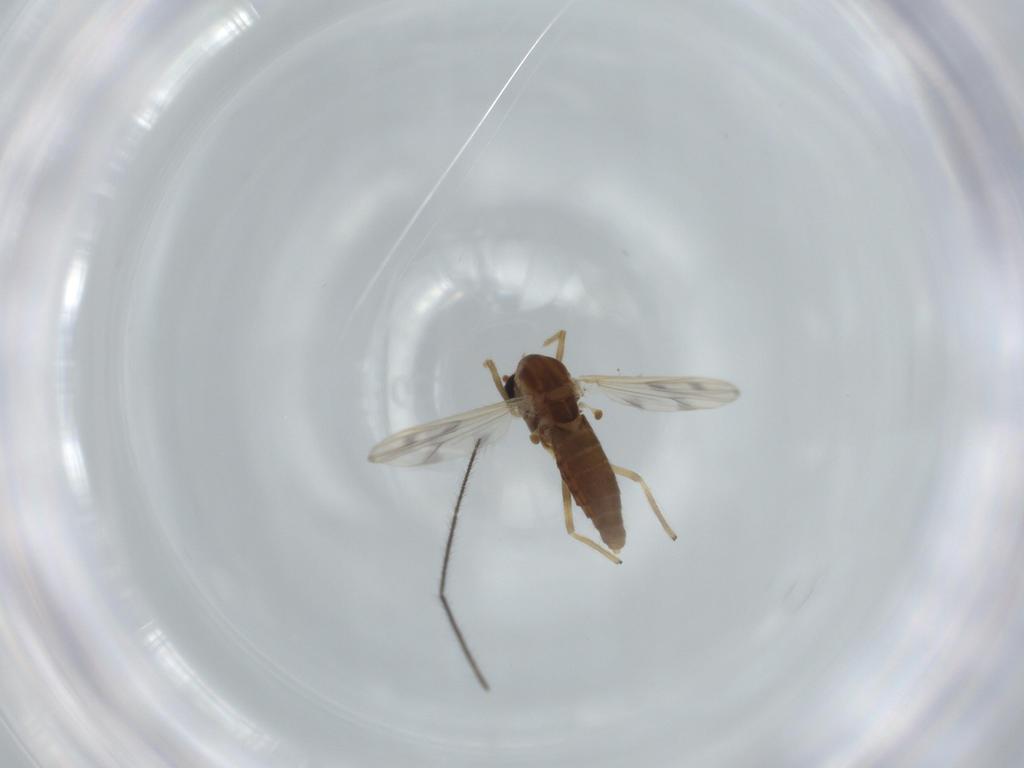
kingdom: Animalia
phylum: Arthropoda
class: Insecta
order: Diptera
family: Chironomidae
